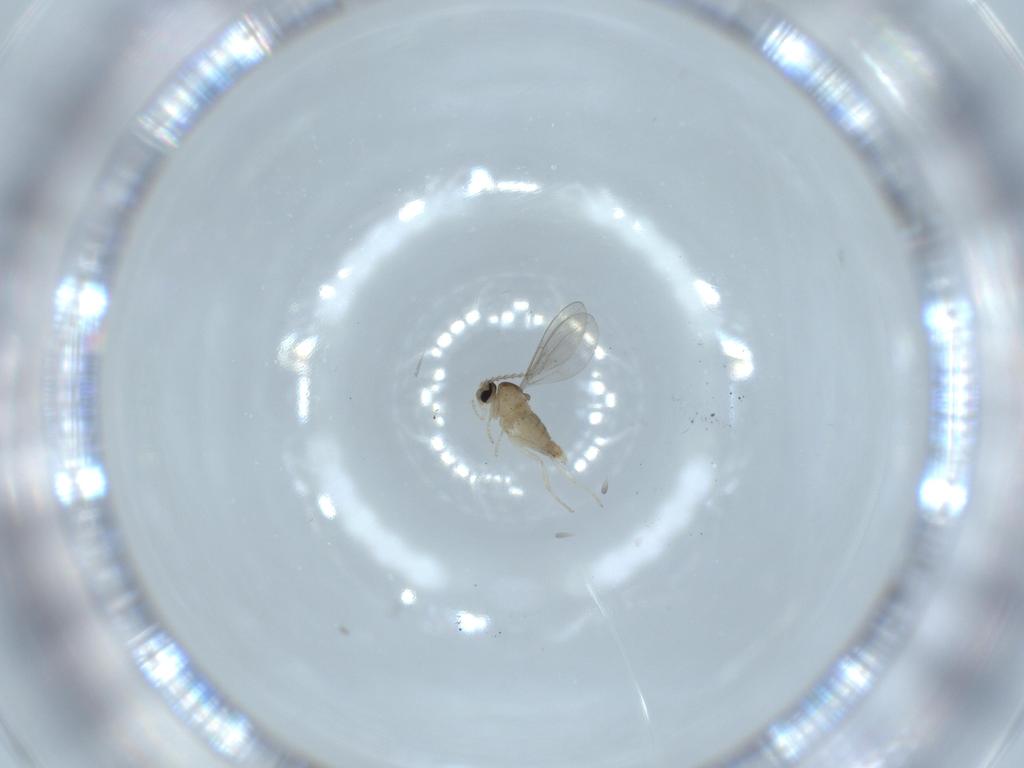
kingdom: Animalia
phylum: Arthropoda
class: Insecta
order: Diptera
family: Cecidomyiidae
